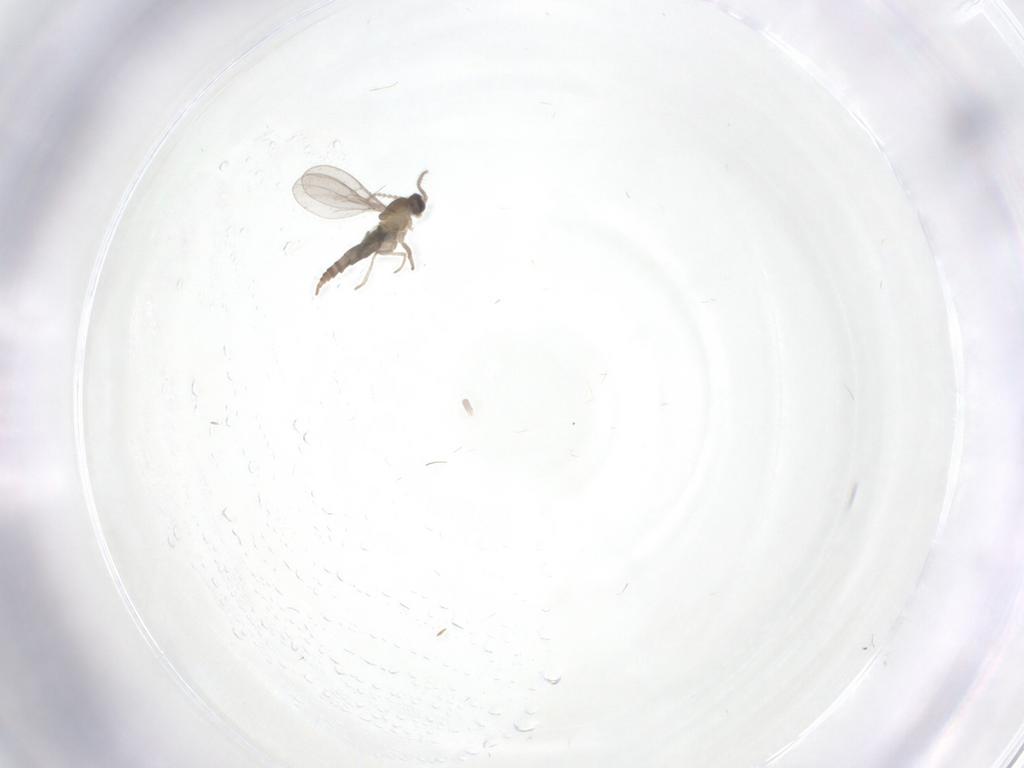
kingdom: Animalia
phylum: Arthropoda
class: Insecta
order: Diptera
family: Cecidomyiidae
